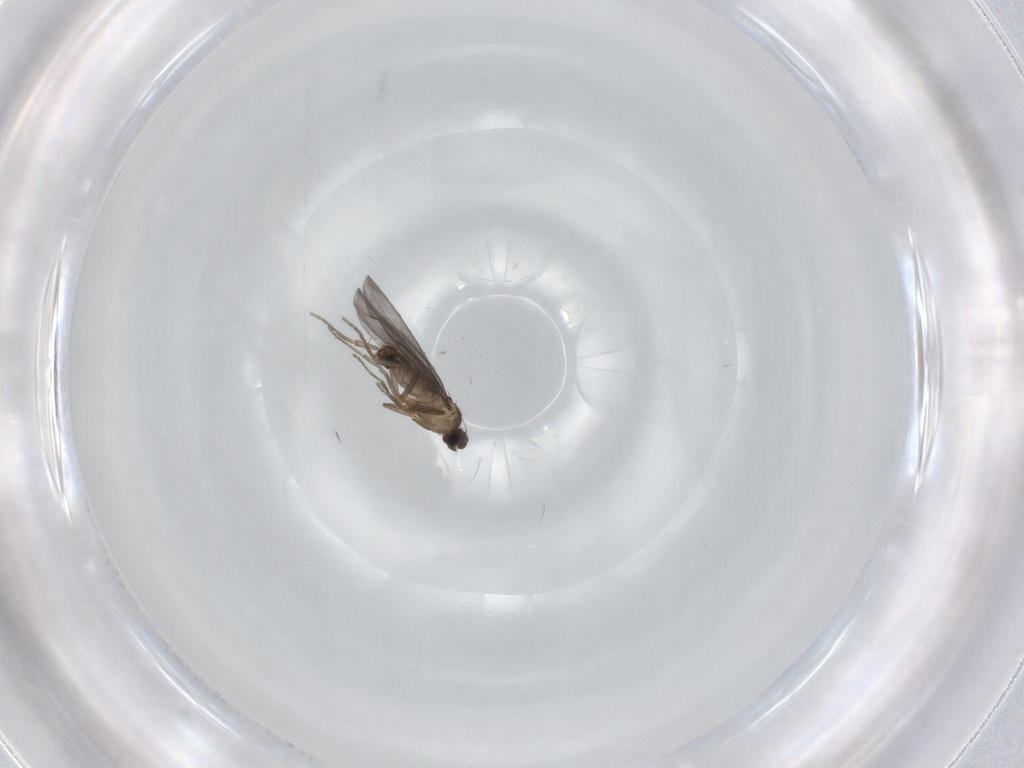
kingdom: Animalia
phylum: Arthropoda
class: Insecta
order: Diptera
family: Phoridae
